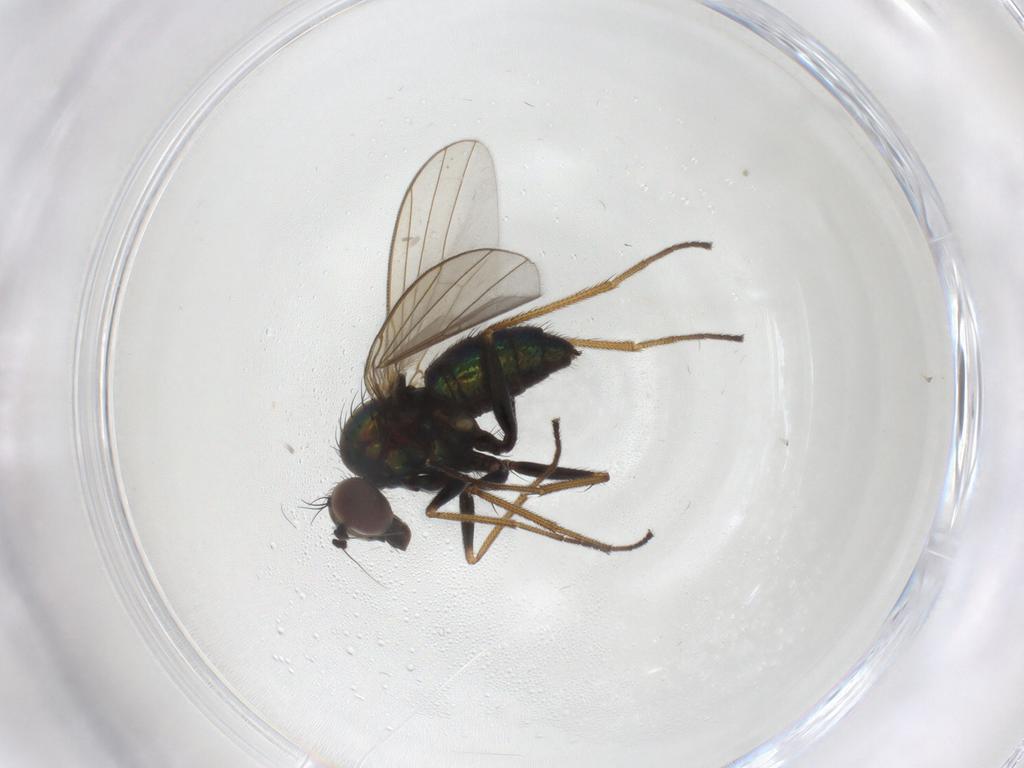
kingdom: Animalia
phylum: Arthropoda
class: Insecta
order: Diptera
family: Dolichopodidae
